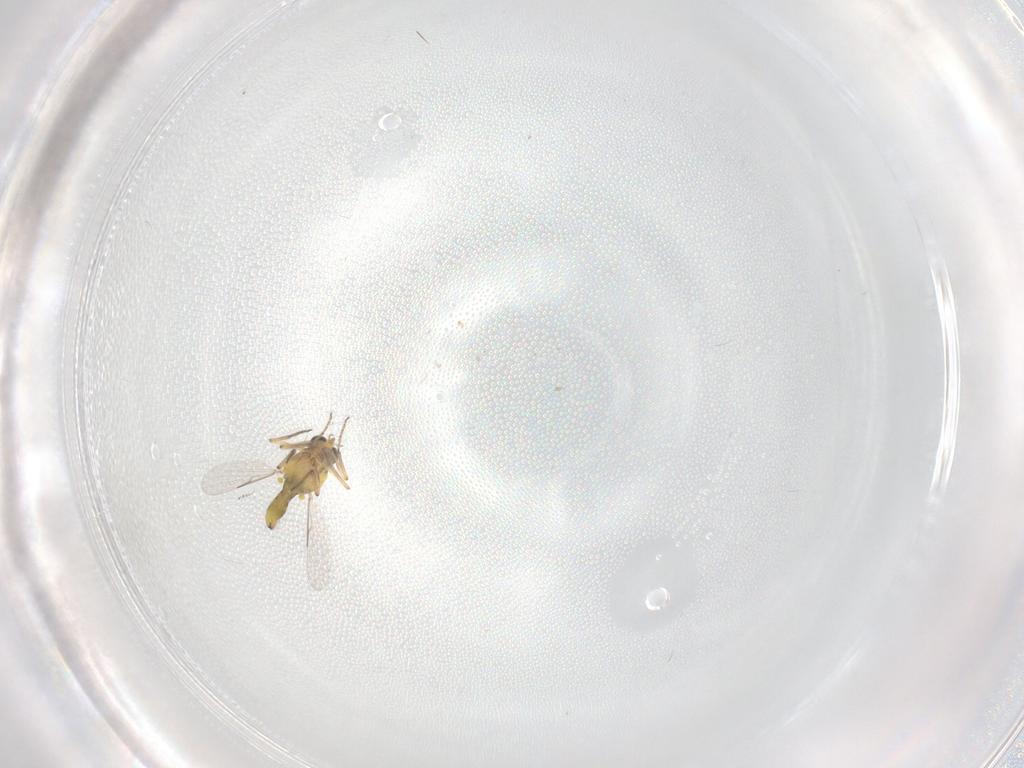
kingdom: Animalia
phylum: Arthropoda
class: Insecta
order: Diptera
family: Ceratopogonidae
